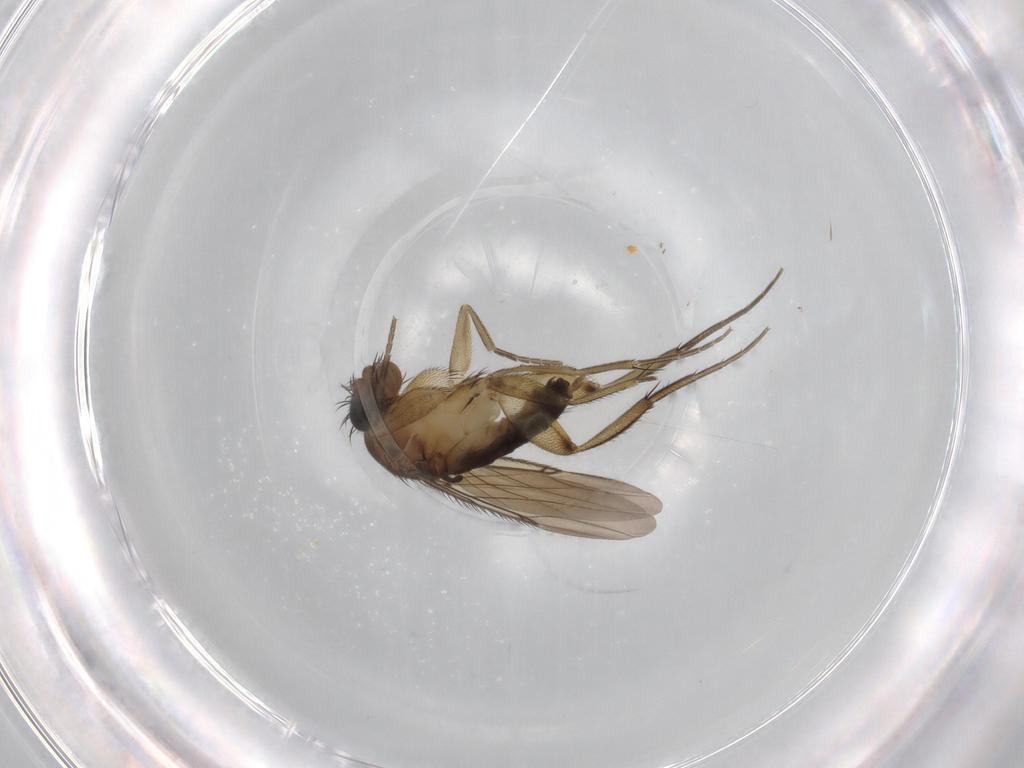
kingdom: Animalia
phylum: Arthropoda
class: Insecta
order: Diptera
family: Phoridae
